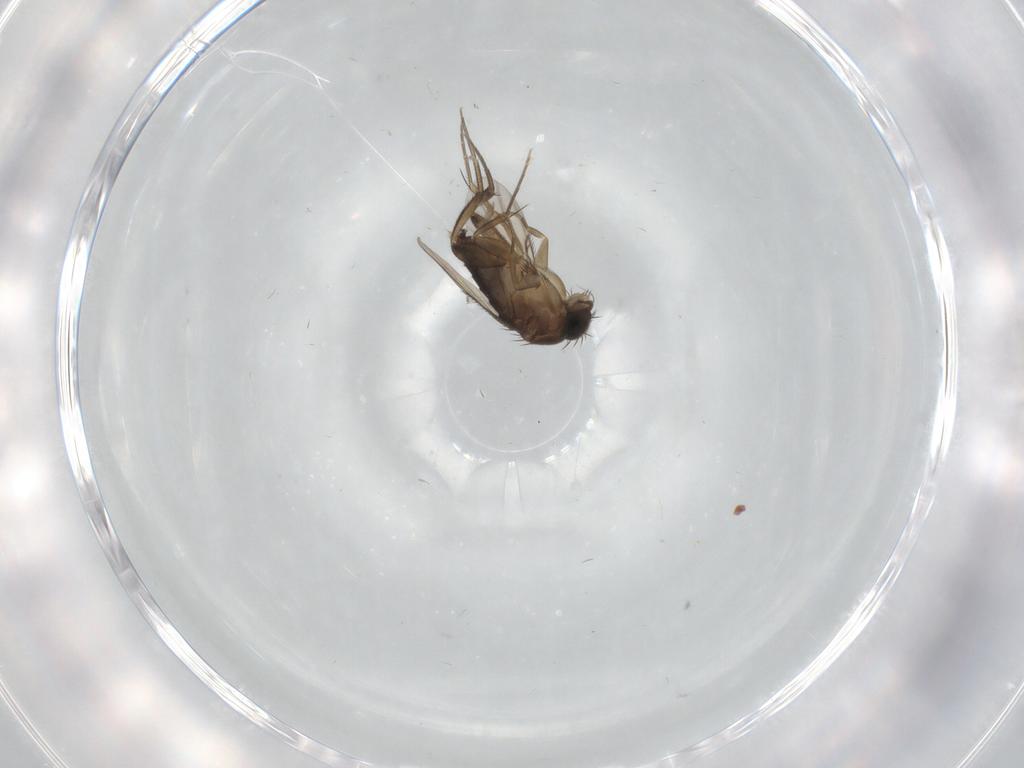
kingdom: Animalia
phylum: Arthropoda
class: Insecta
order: Diptera
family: Phoridae
